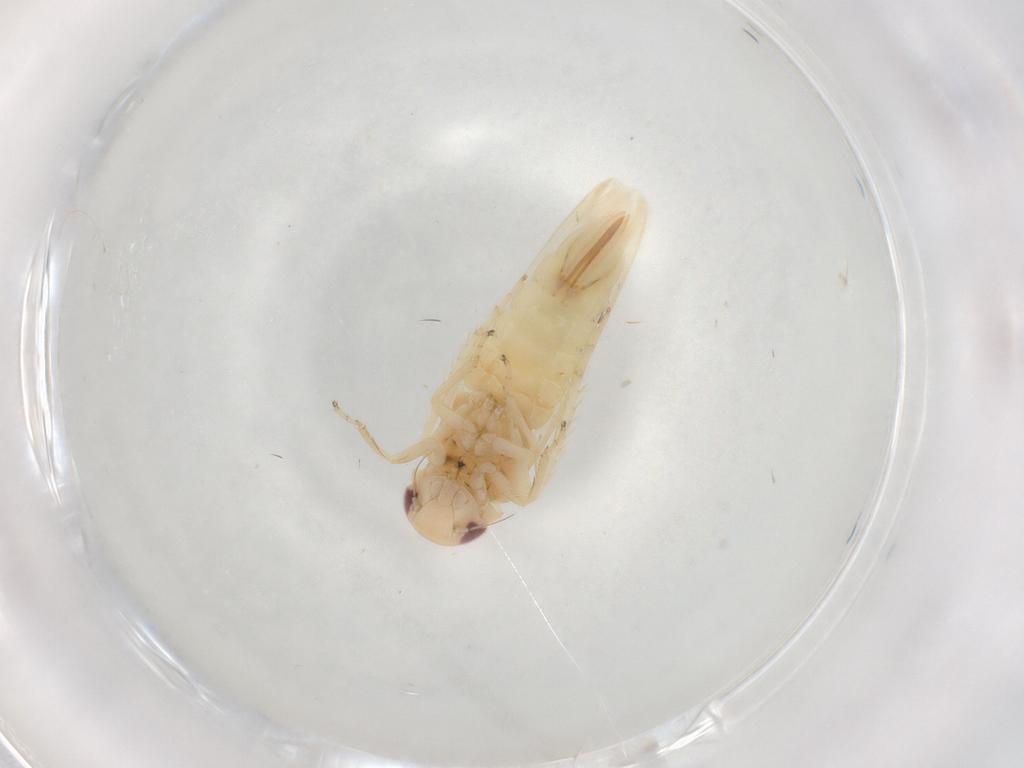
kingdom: Animalia
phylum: Arthropoda
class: Insecta
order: Hemiptera
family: Cicadellidae
